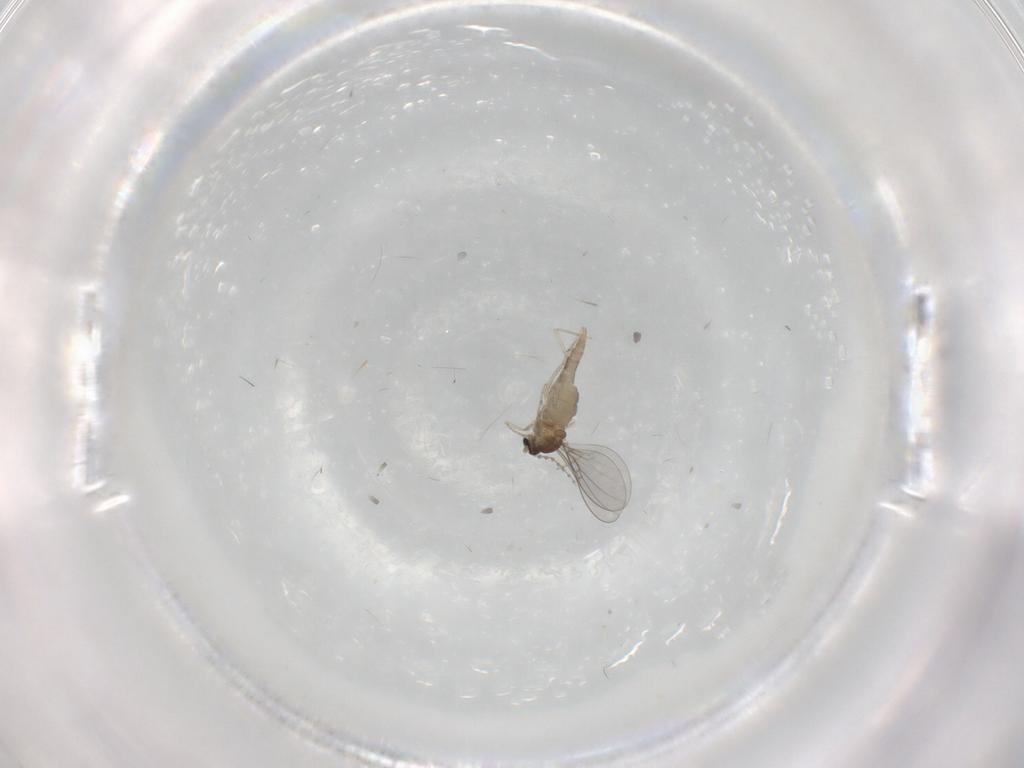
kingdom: Animalia
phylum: Arthropoda
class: Insecta
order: Diptera
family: Cecidomyiidae
